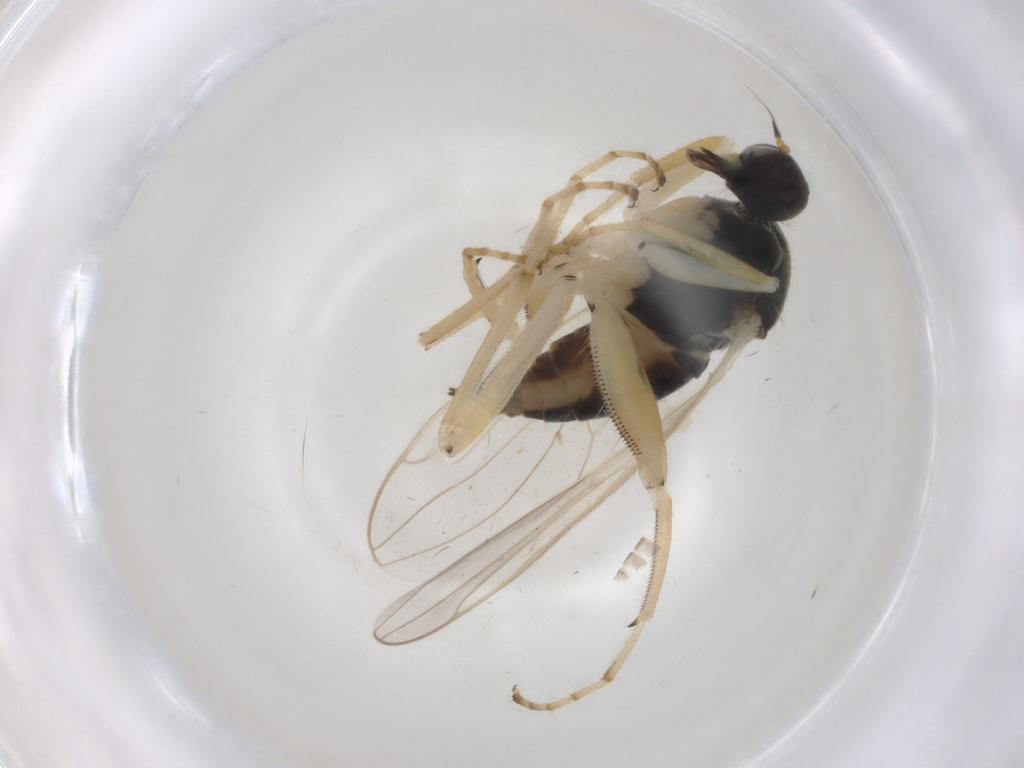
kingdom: Animalia
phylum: Arthropoda
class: Insecta
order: Diptera
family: Hybotidae
